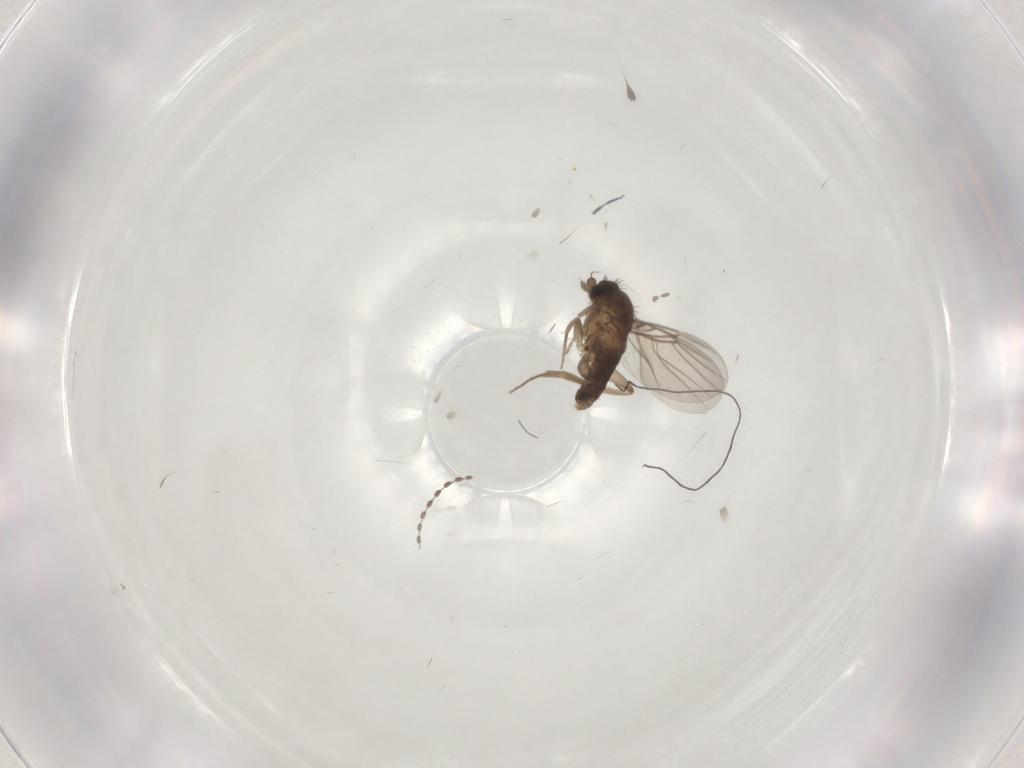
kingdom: Animalia
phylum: Arthropoda
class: Insecta
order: Diptera
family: Phoridae
